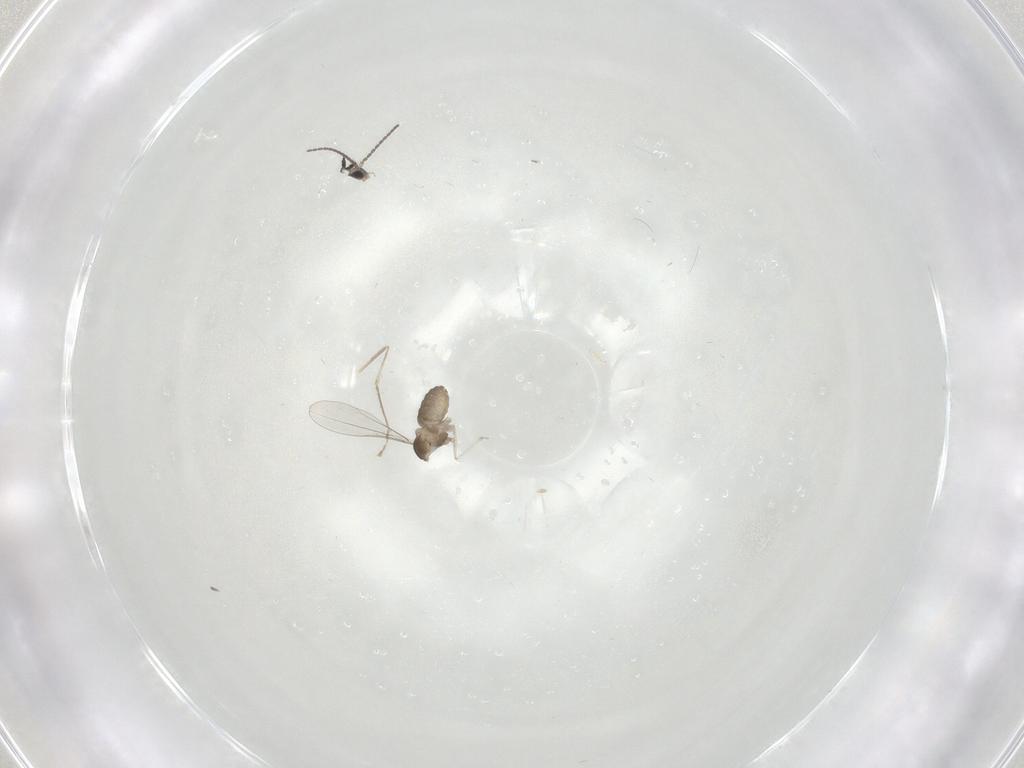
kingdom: Animalia
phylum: Arthropoda
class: Insecta
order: Diptera
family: Cecidomyiidae
